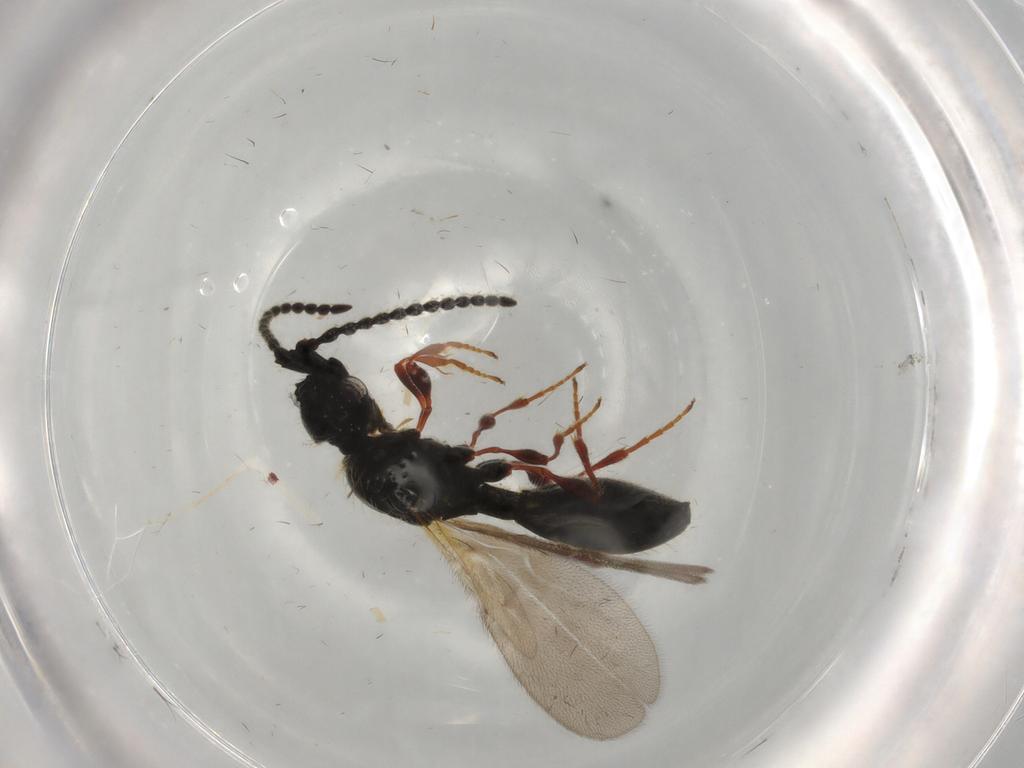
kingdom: Animalia
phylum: Arthropoda
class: Insecta
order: Hymenoptera
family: Diapriidae
